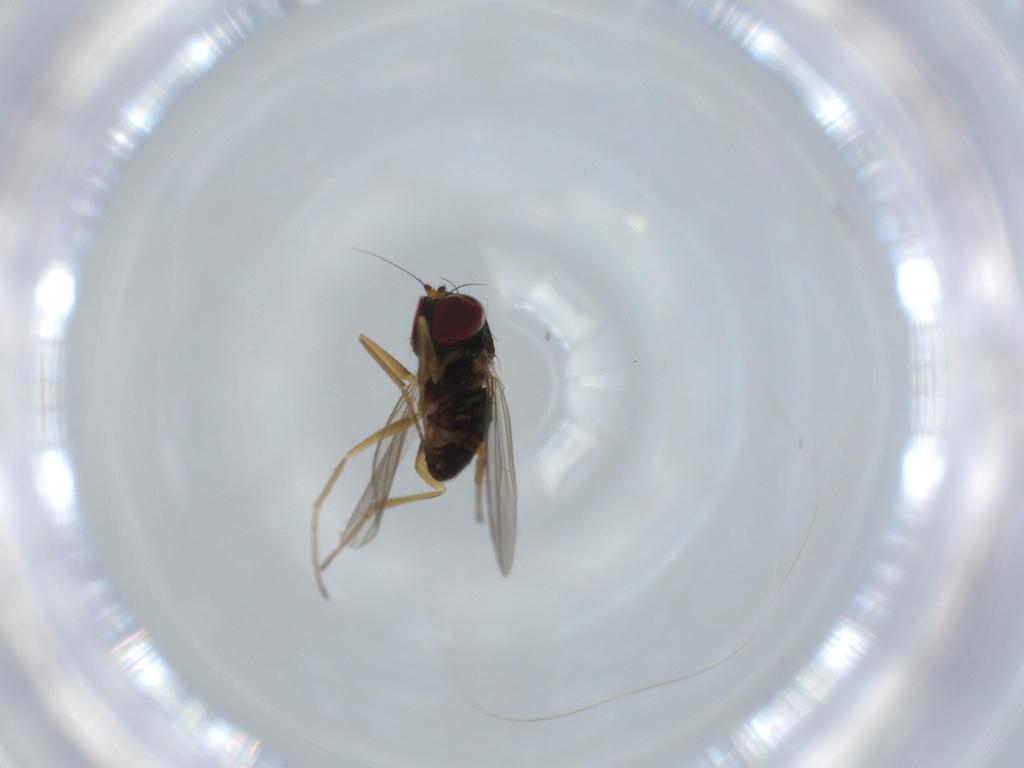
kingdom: Animalia
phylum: Arthropoda
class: Insecta
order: Diptera
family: Dolichopodidae
